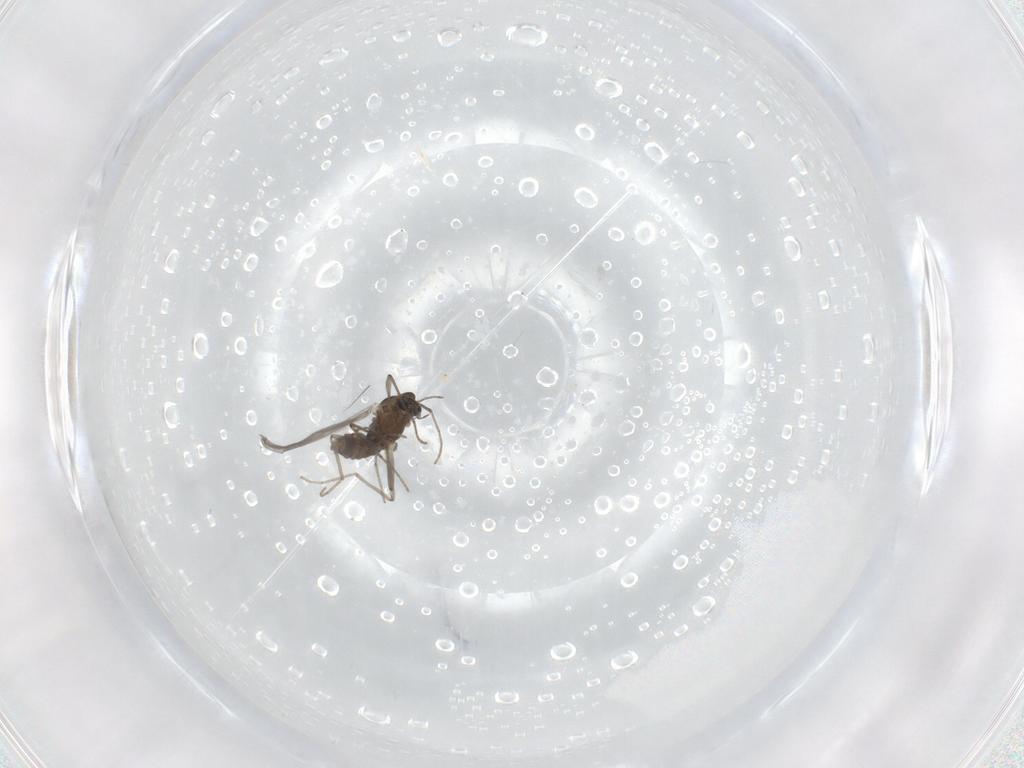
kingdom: Animalia
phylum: Arthropoda
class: Insecta
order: Diptera
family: Chironomidae
